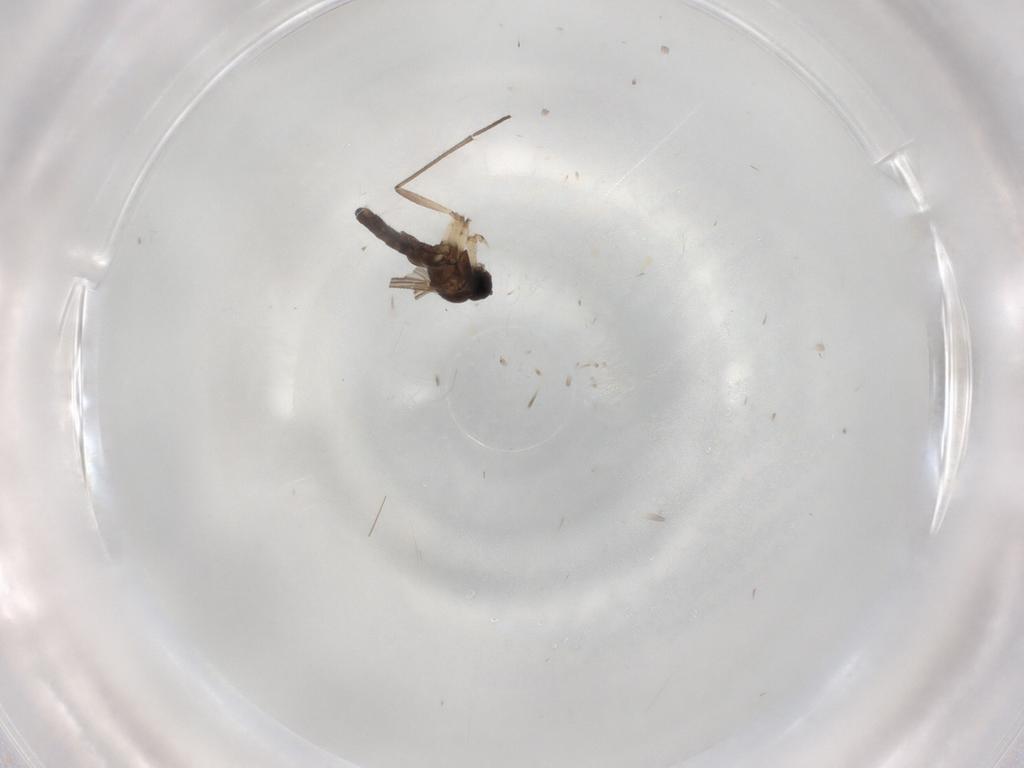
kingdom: Animalia
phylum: Arthropoda
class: Insecta
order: Diptera
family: Sciaridae
